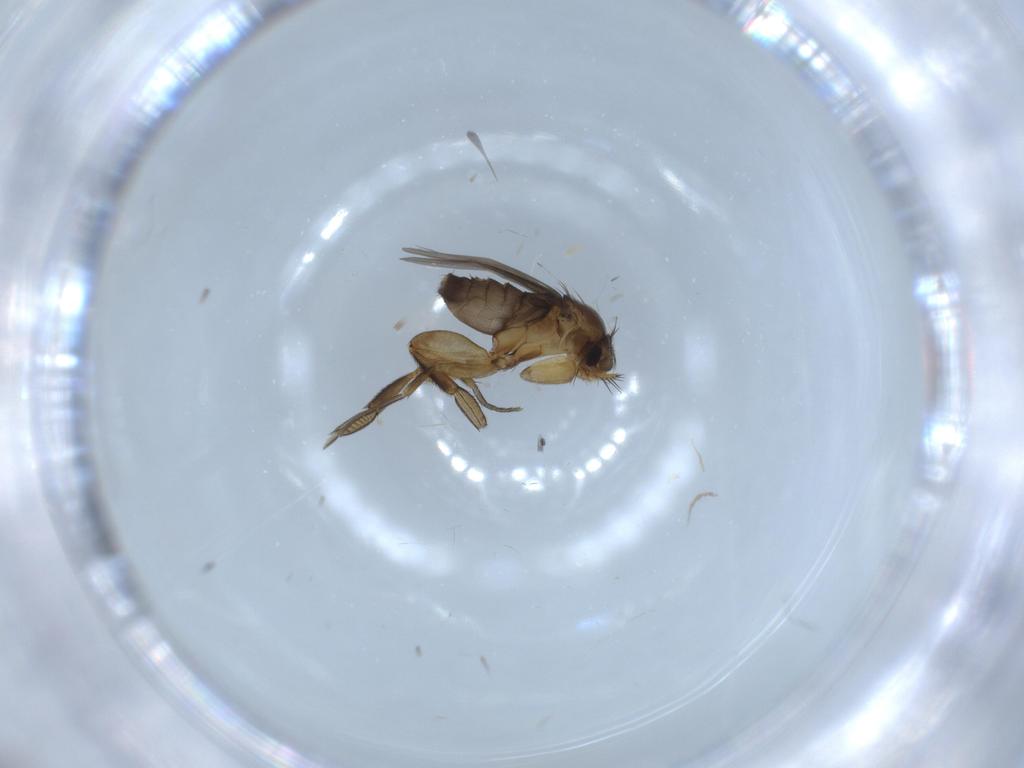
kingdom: Animalia
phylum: Arthropoda
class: Insecta
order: Diptera
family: Phoridae
